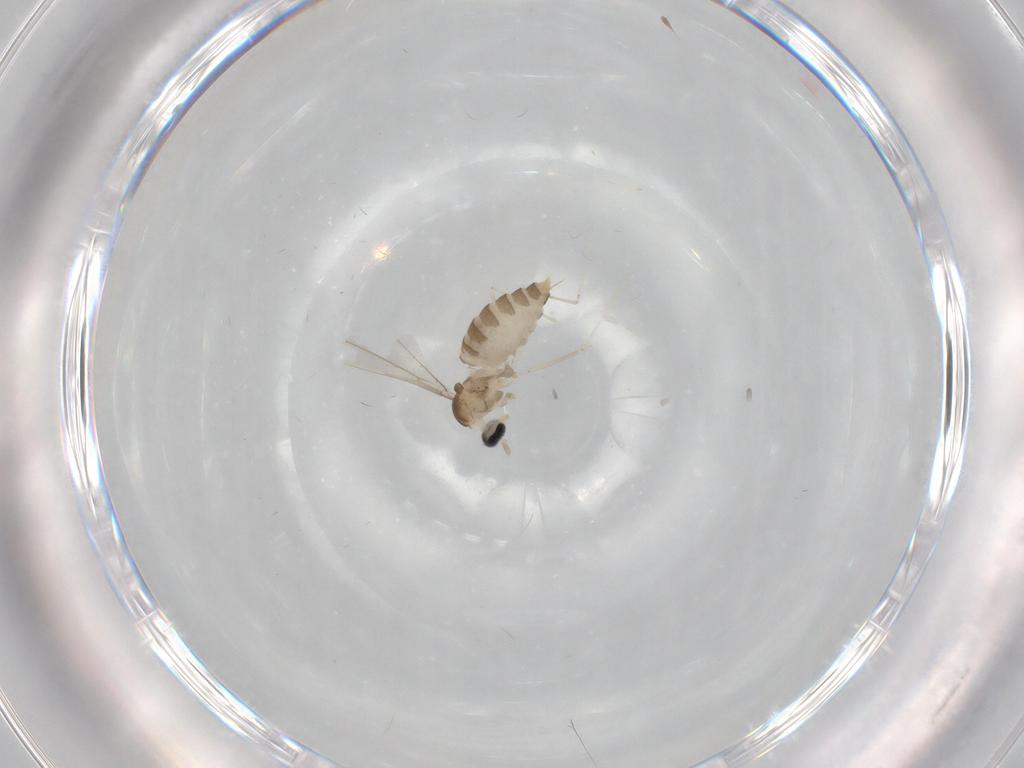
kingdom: Animalia
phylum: Arthropoda
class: Insecta
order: Diptera
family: Cecidomyiidae
